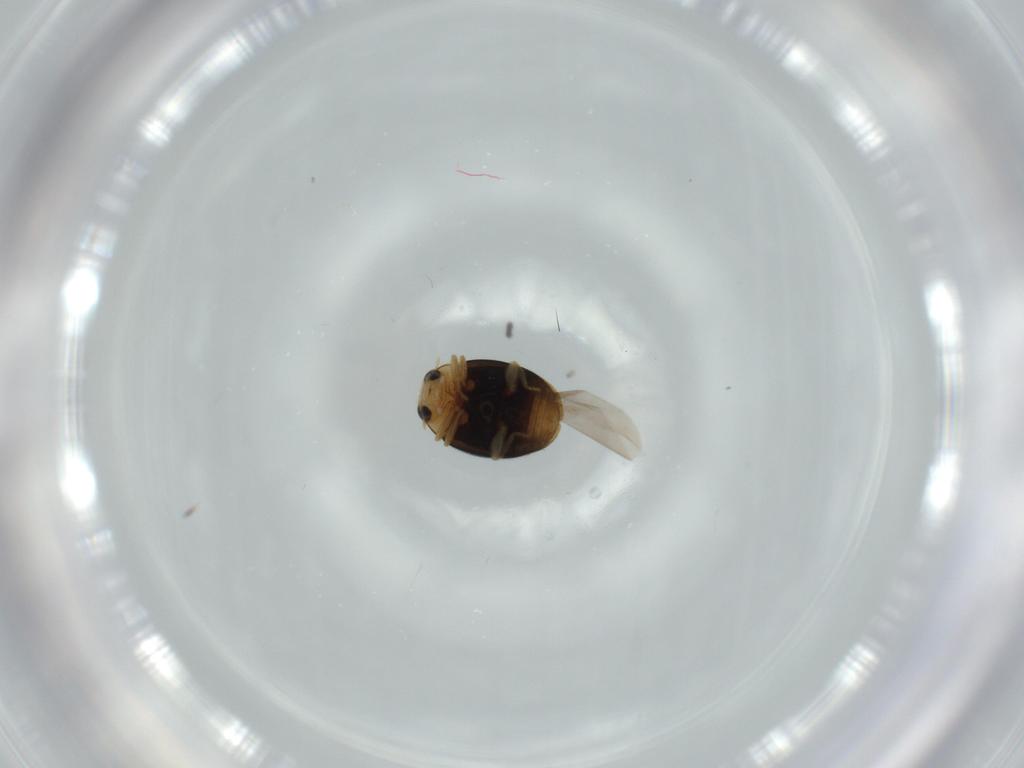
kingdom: Animalia
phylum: Arthropoda
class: Insecta
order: Coleoptera
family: Coccinellidae
